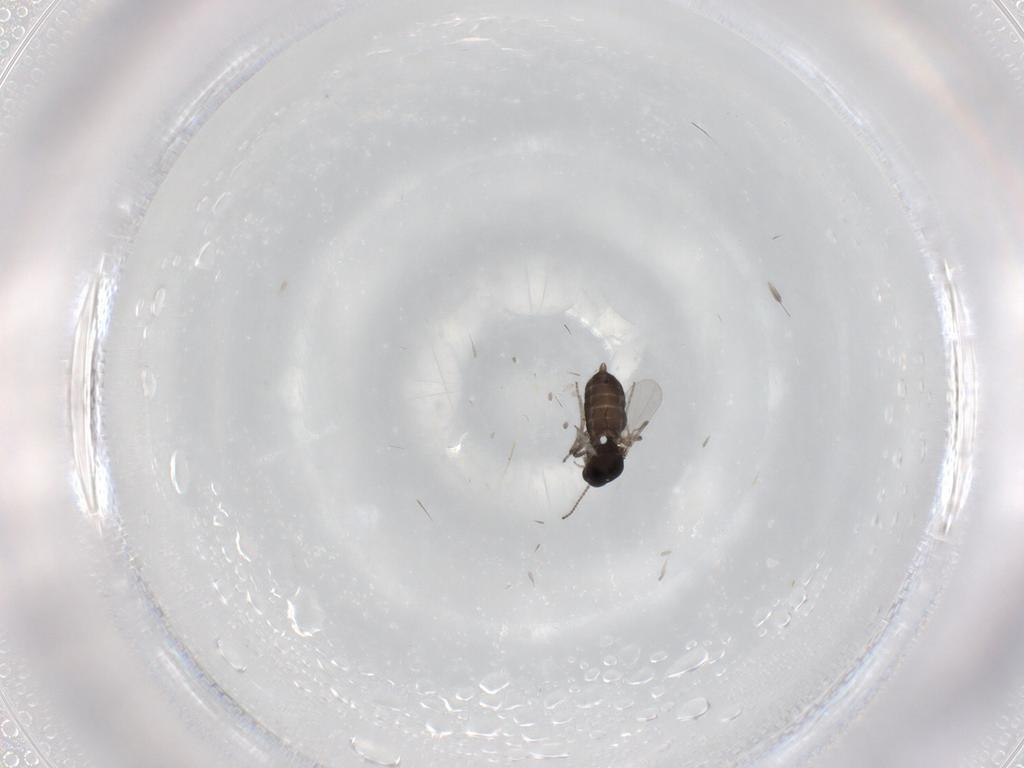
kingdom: Animalia
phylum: Arthropoda
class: Insecta
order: Diptera
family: Ceratopogonidae
